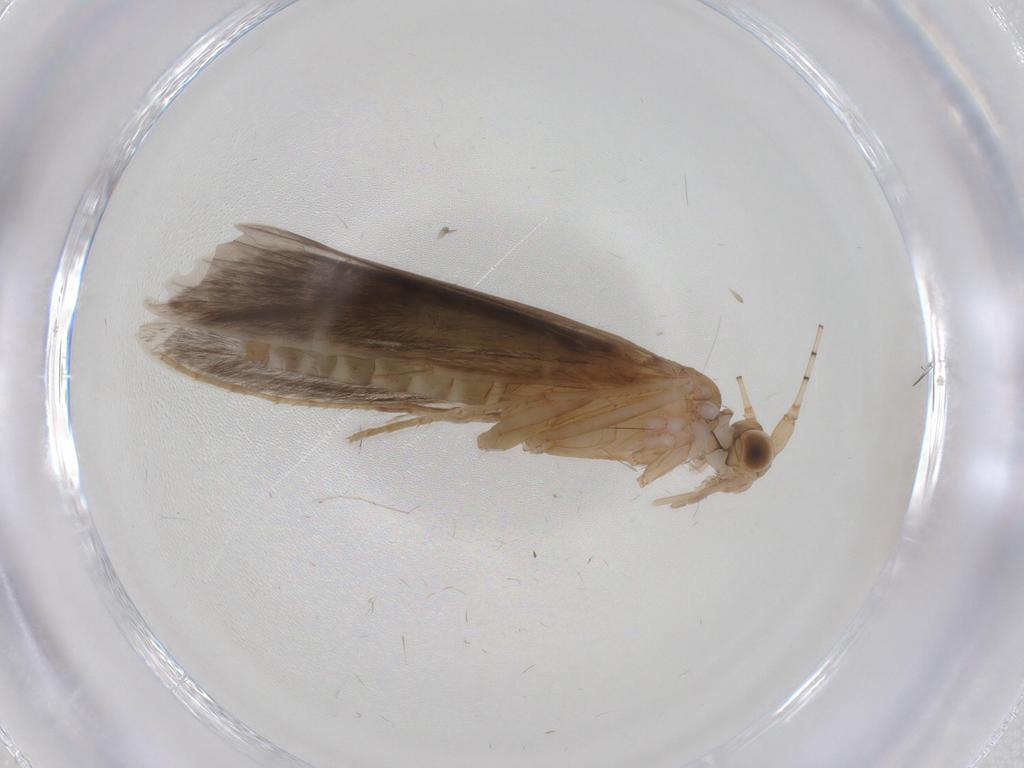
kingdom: Animalia
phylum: Arthropoda
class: Insecta
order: Trichoptera
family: Leptoceridae
